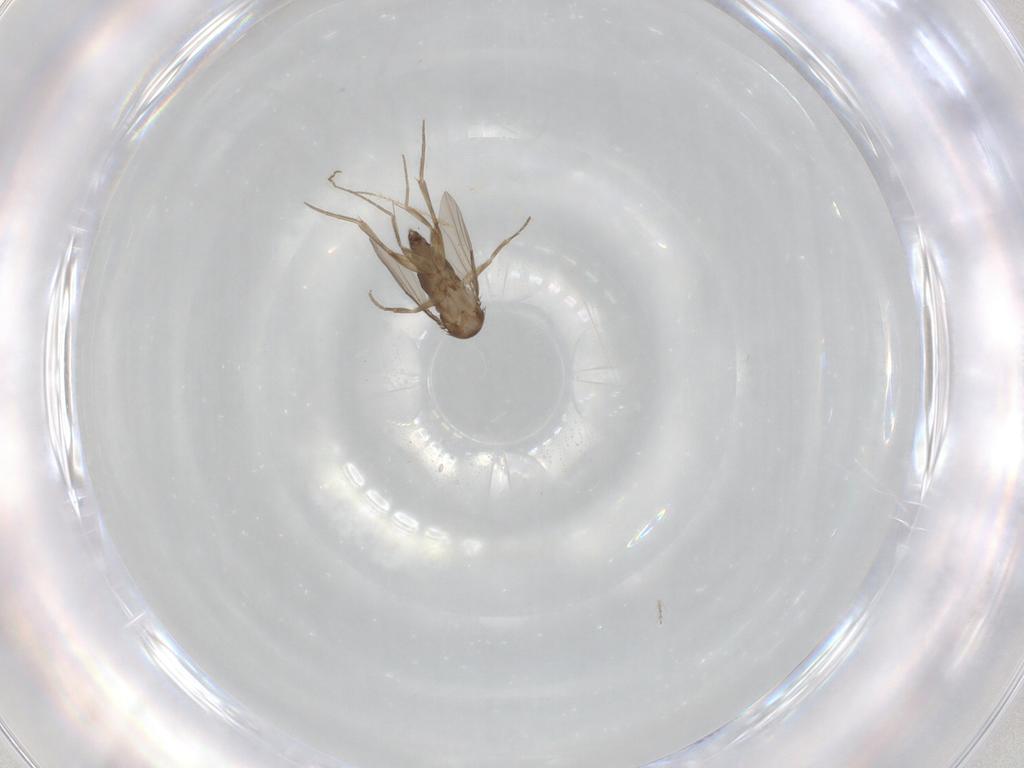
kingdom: Animalia
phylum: Arthropoda
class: Insecta
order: Diptera
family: Phoridae
